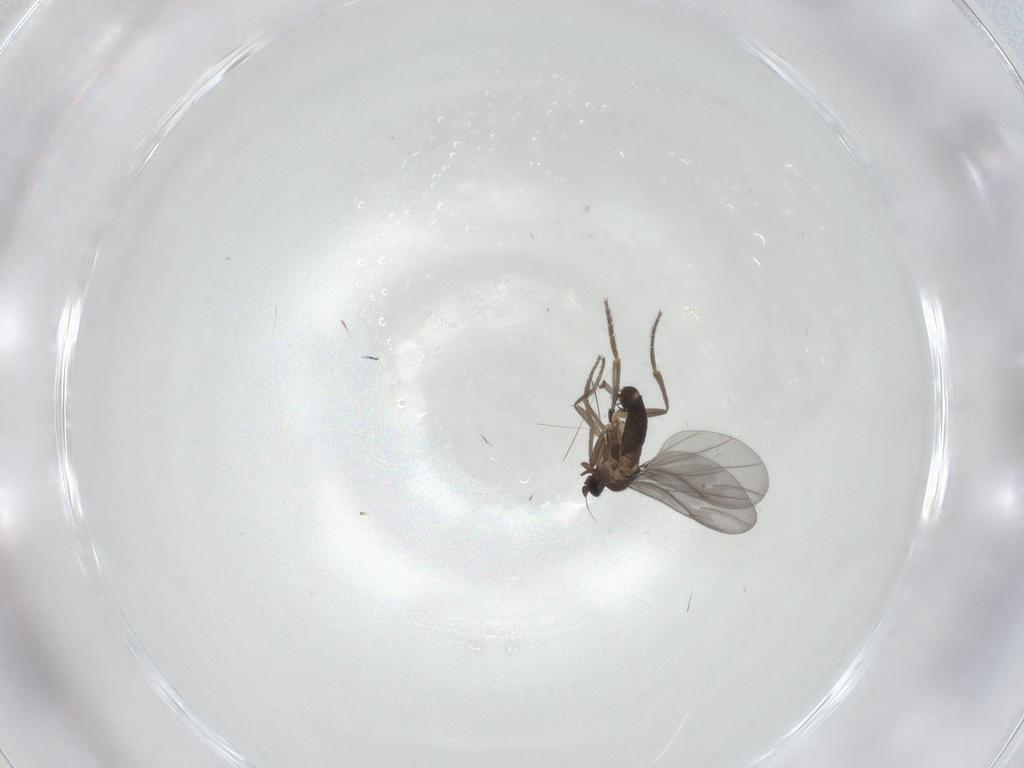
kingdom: Animalia
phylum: Arthropoda
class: Insecta
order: Diptera
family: Phoridae
